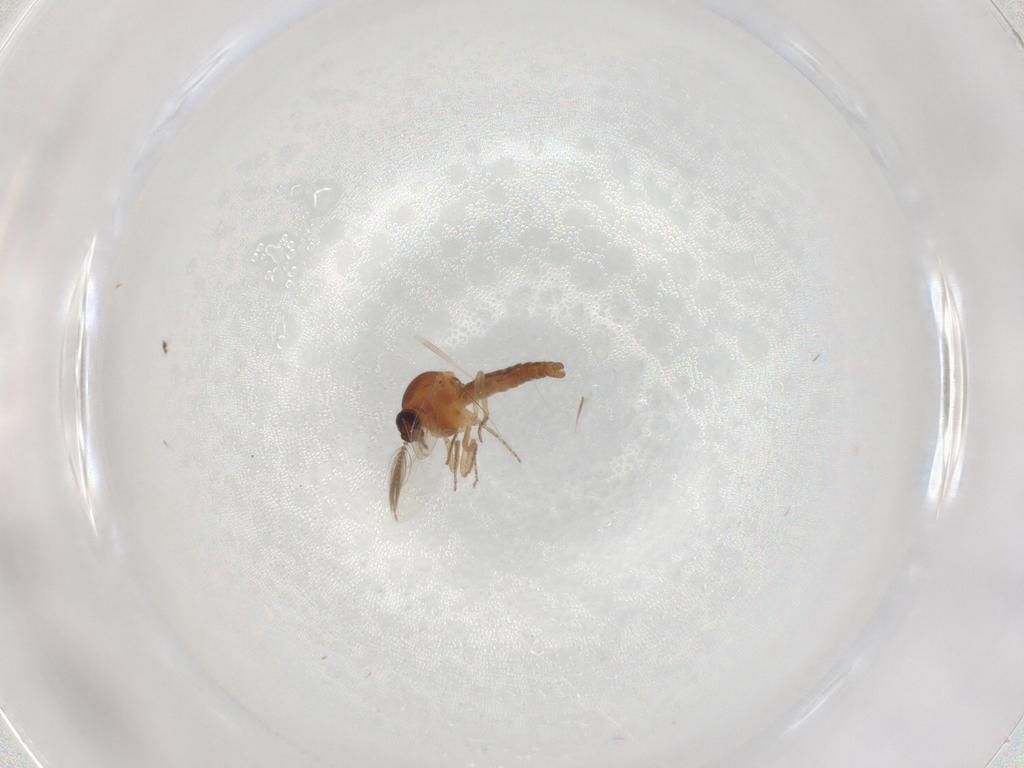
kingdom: Animalia
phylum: Arthropoda
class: Insecta
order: Diptera
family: Ceratopogonidae
